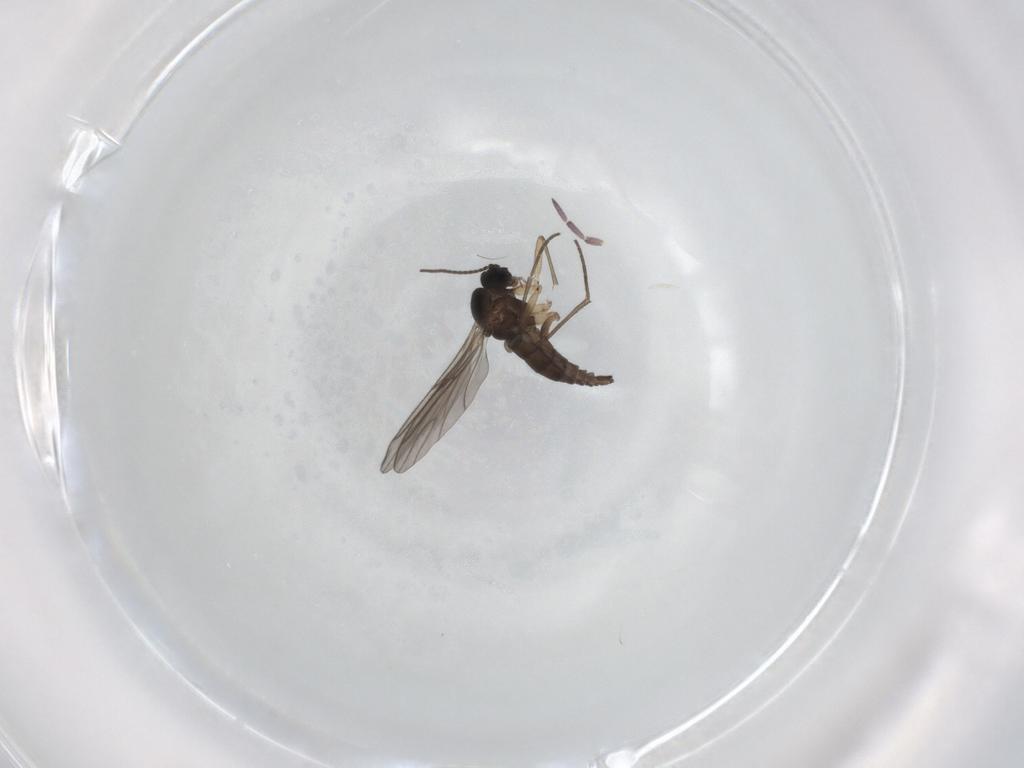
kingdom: Animalia
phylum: Arthropoda
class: Insecta
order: Diptera
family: Sciaridae
